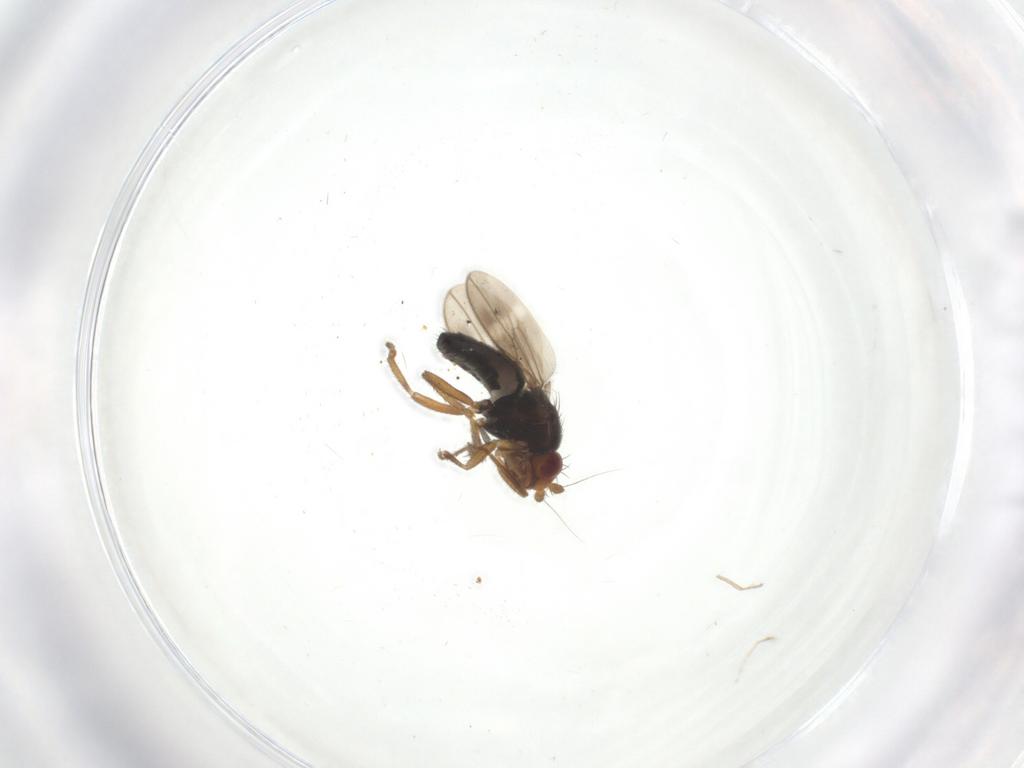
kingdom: Animalia
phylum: Arthropoda
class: Insecta
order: Diptera
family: Sphaeroceridae
